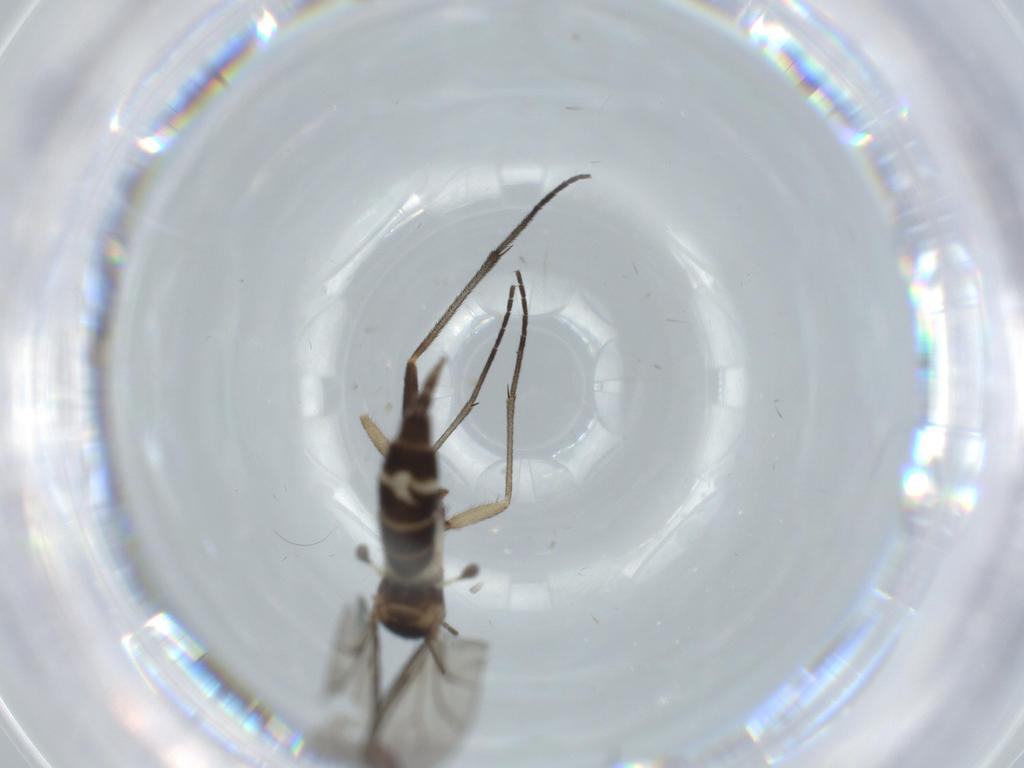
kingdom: Animalia
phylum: Arthropoda
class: Insecta
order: Diptera
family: Sciaridae
